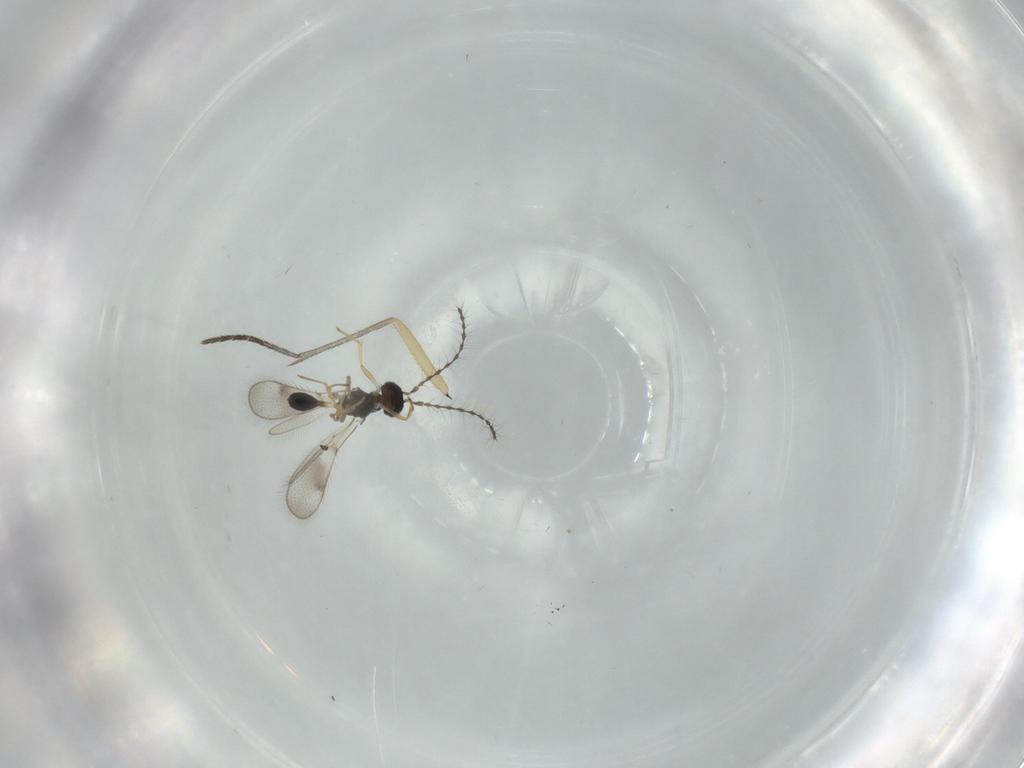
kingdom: Animalia
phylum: Arthropoda
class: Insecta
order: Hymenoptera
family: Diparidae
